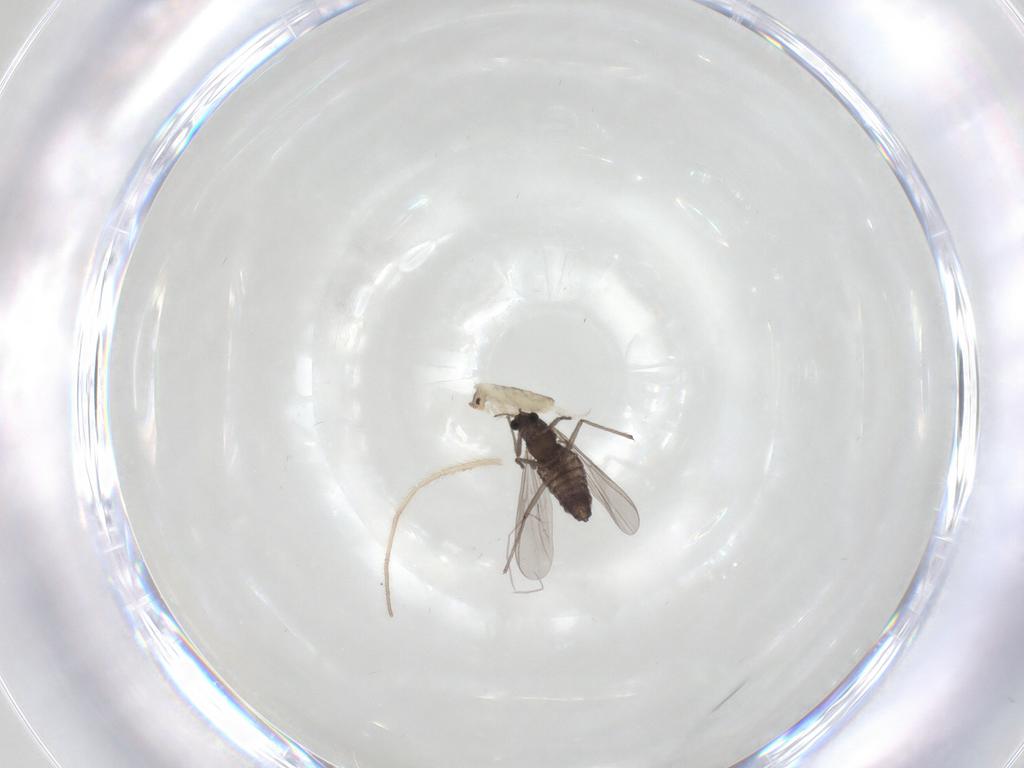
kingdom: Animalia
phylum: Arthropoda
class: Insecta
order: Diptera
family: Chironomidae
